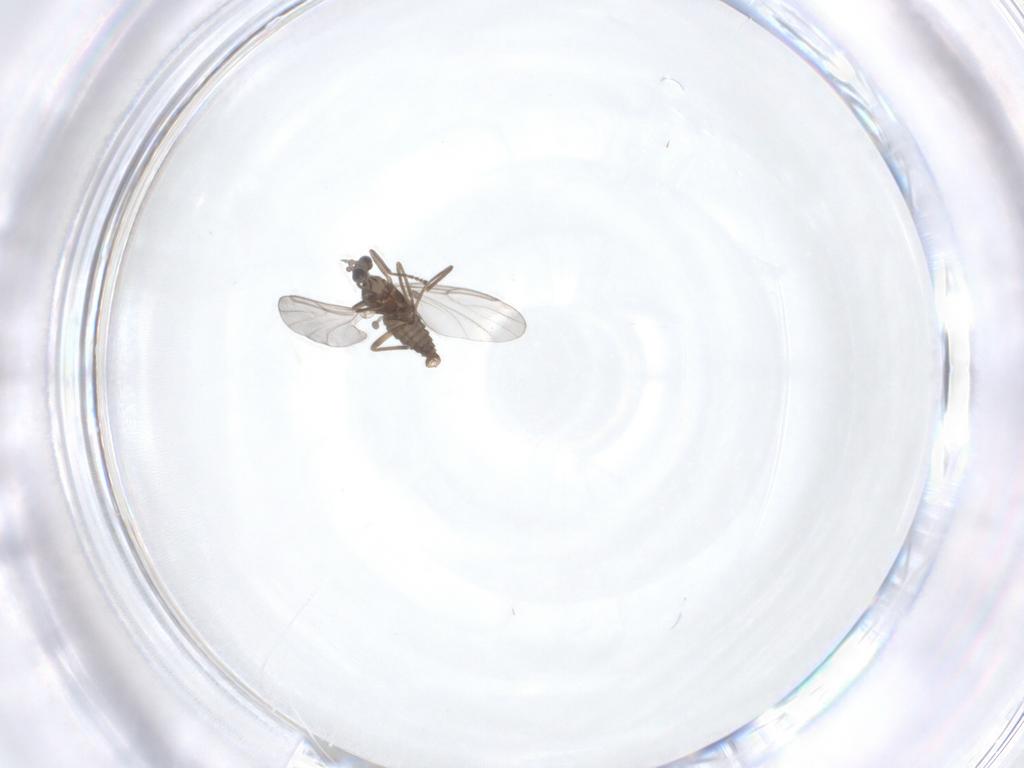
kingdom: Animalia
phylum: Arthropoda
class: Insecta
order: Diptera
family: Cecidomyiidae
